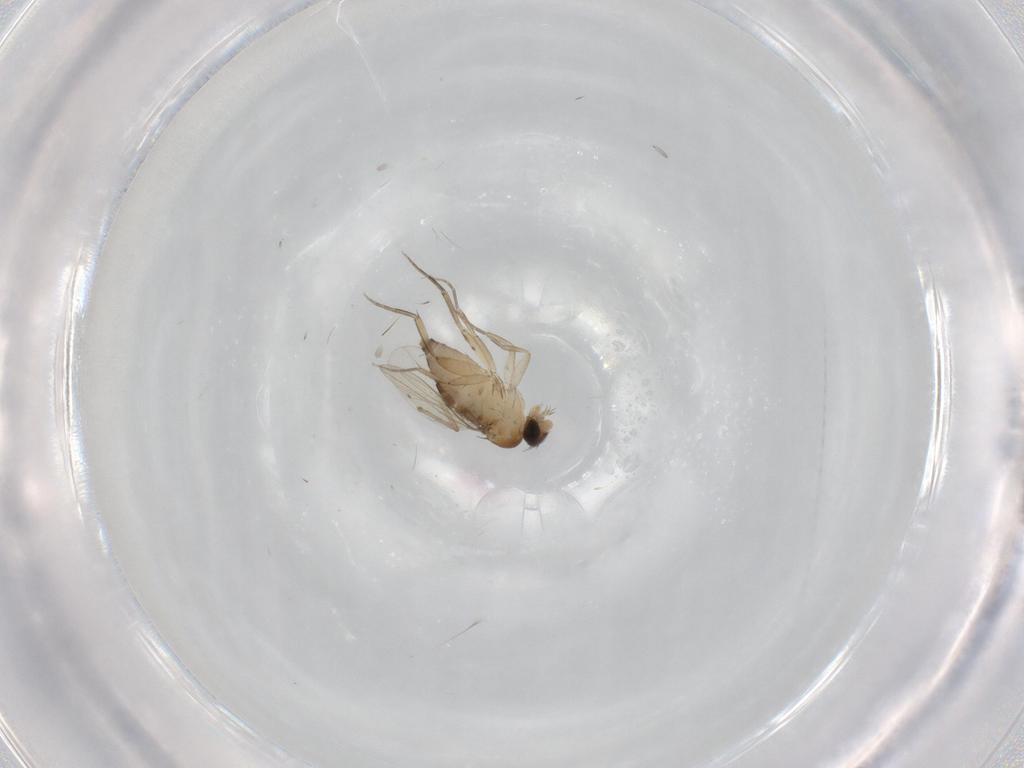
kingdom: Animalia
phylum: Arthropoda
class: Insecta
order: Diptera
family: Phoridae
